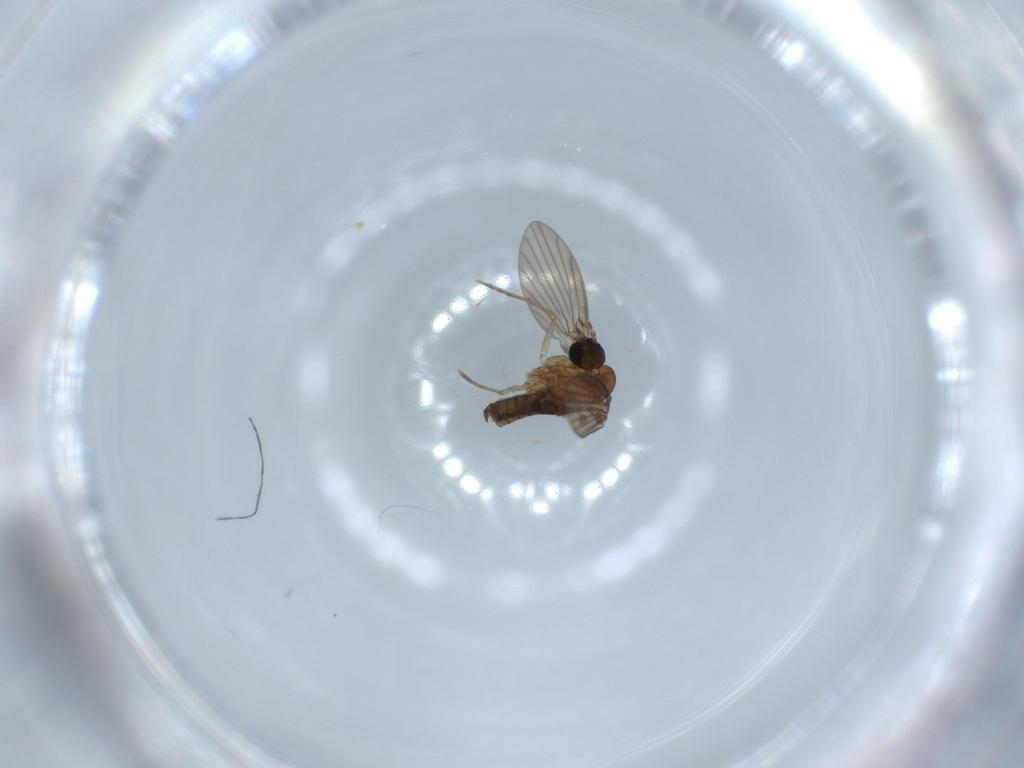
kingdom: Animalia
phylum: Arthropoda
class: Insecta
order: Diptera
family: Psychodidae
